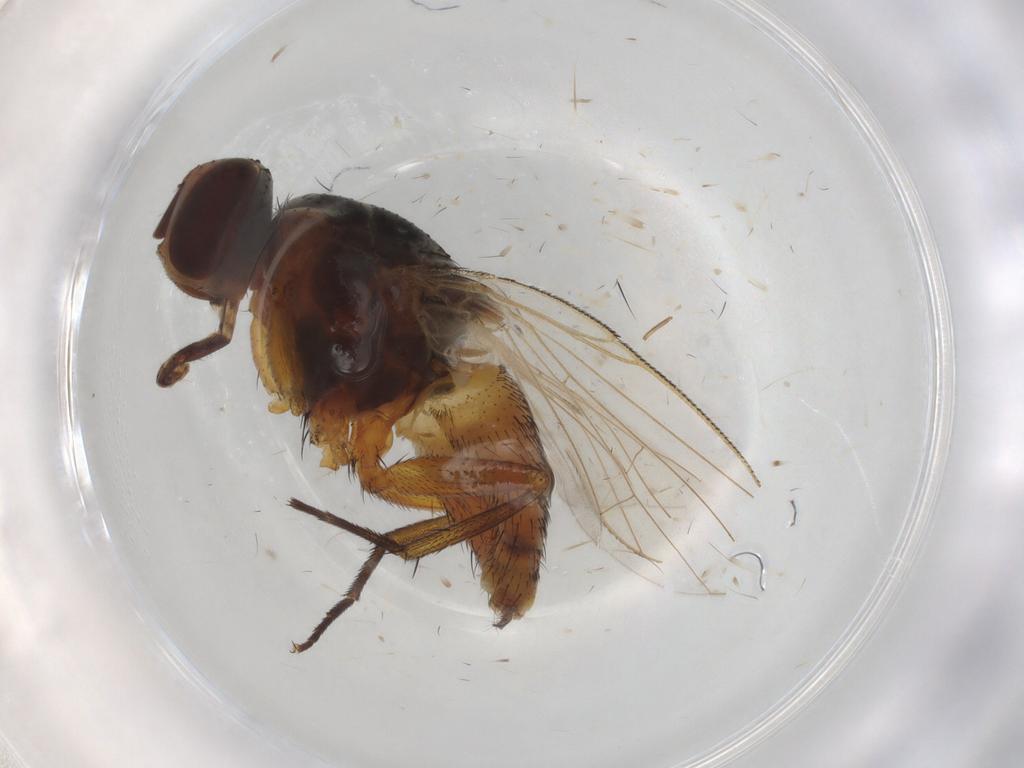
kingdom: Animalia
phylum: Arthropoda
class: Insecta
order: Diptera
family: Muscidae
